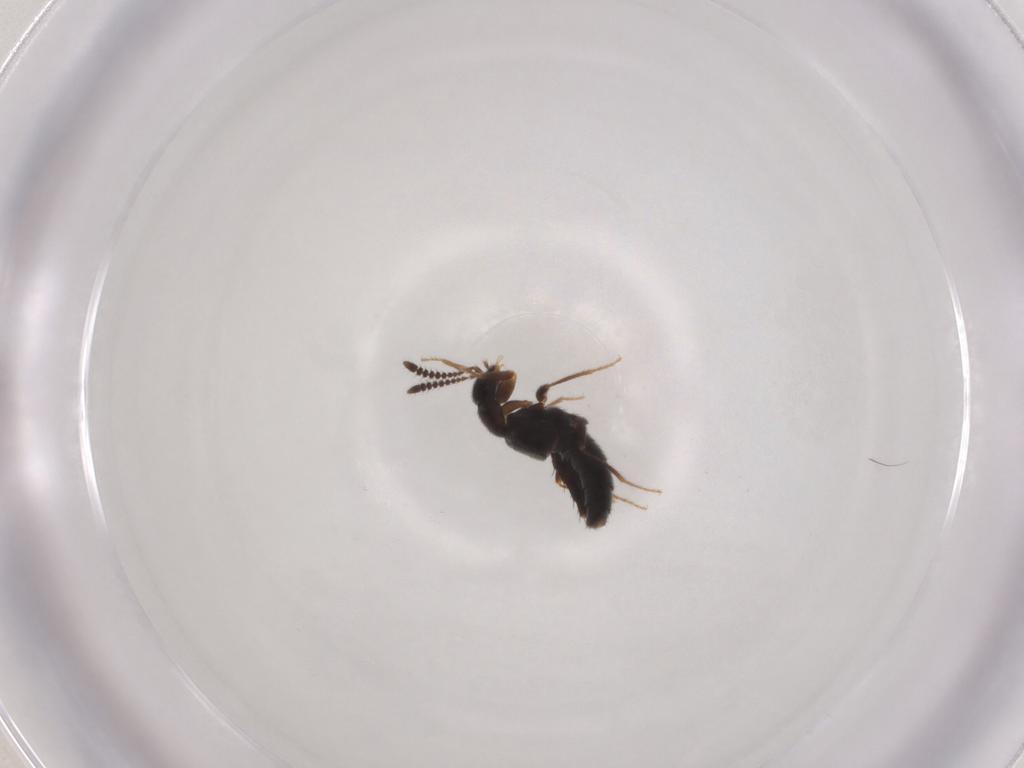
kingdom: Animalia
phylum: Arthropoda
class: Insecta
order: Coleoptera
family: Staphylinidae
